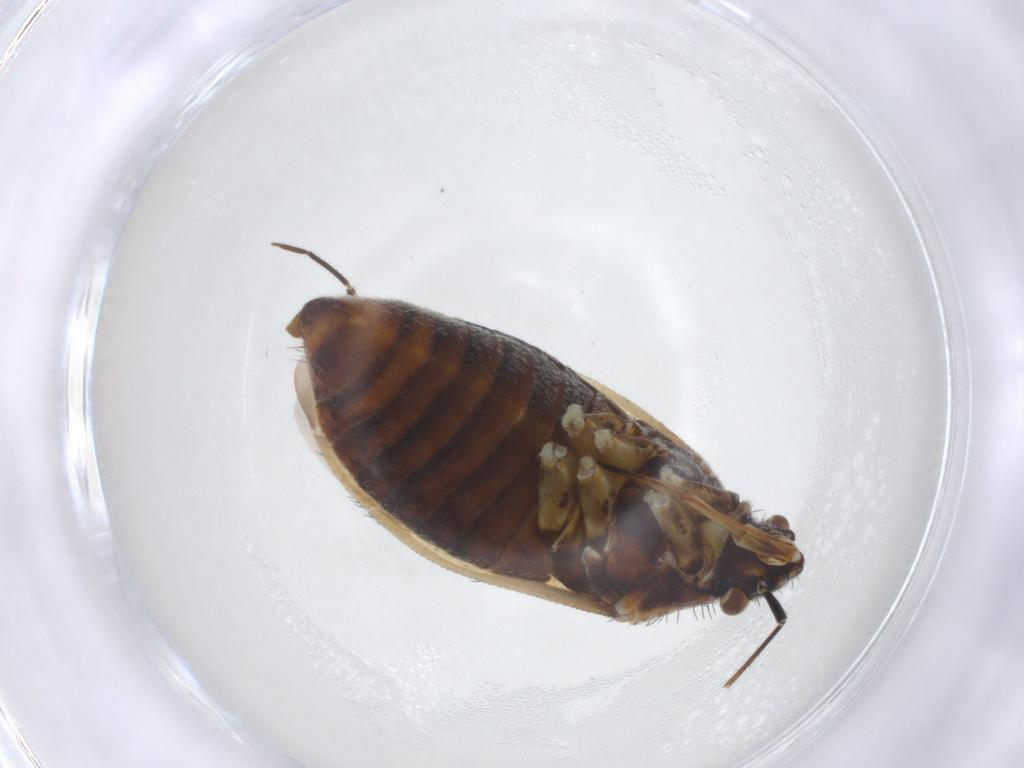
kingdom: Animalia
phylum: Arthropoda
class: Insecta
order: Hemiptera
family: Miridae
